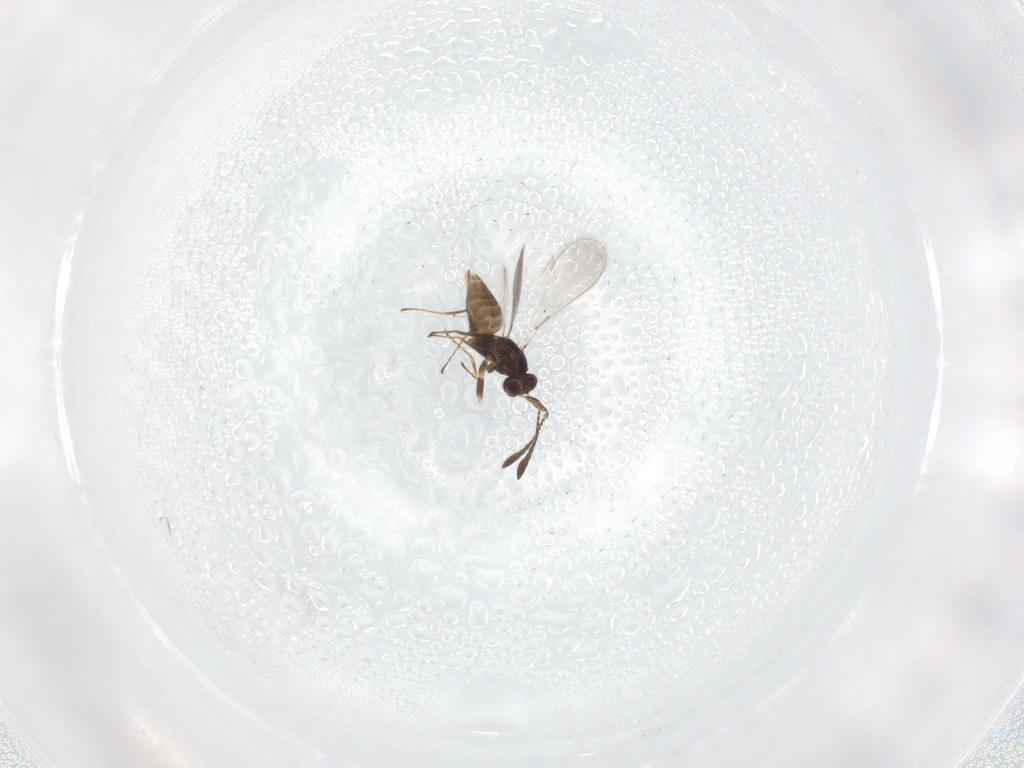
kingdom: Animalia
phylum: Arthropoda
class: Insecta
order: Hymenoptera
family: Mymaridae
